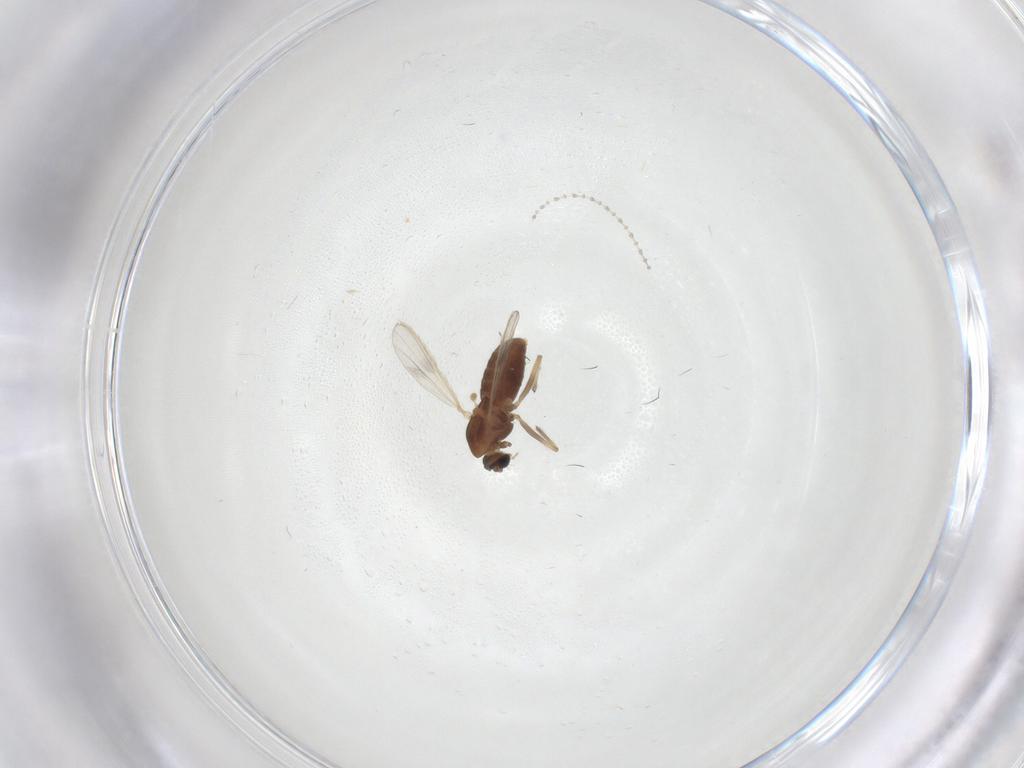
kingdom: Animalia
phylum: Arthropoda
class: Insecta
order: Diptera
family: Chironomidae
